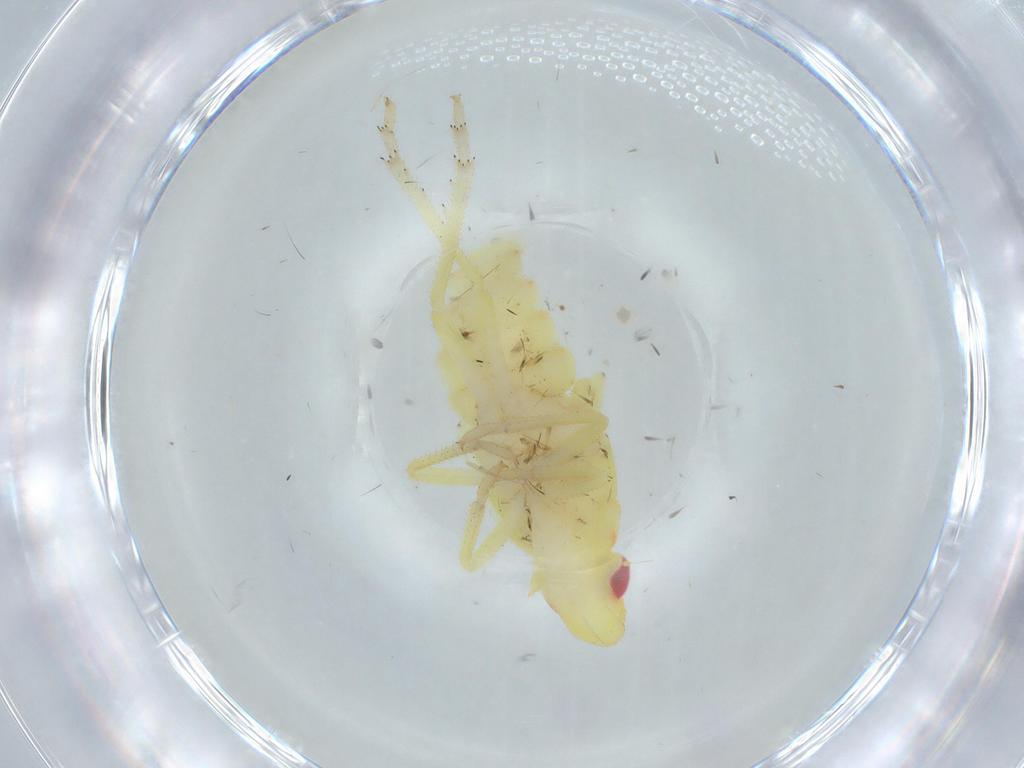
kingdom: Animalia
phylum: Arthropoda
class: Insecta
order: Hemiptera
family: Tropiduchidae
